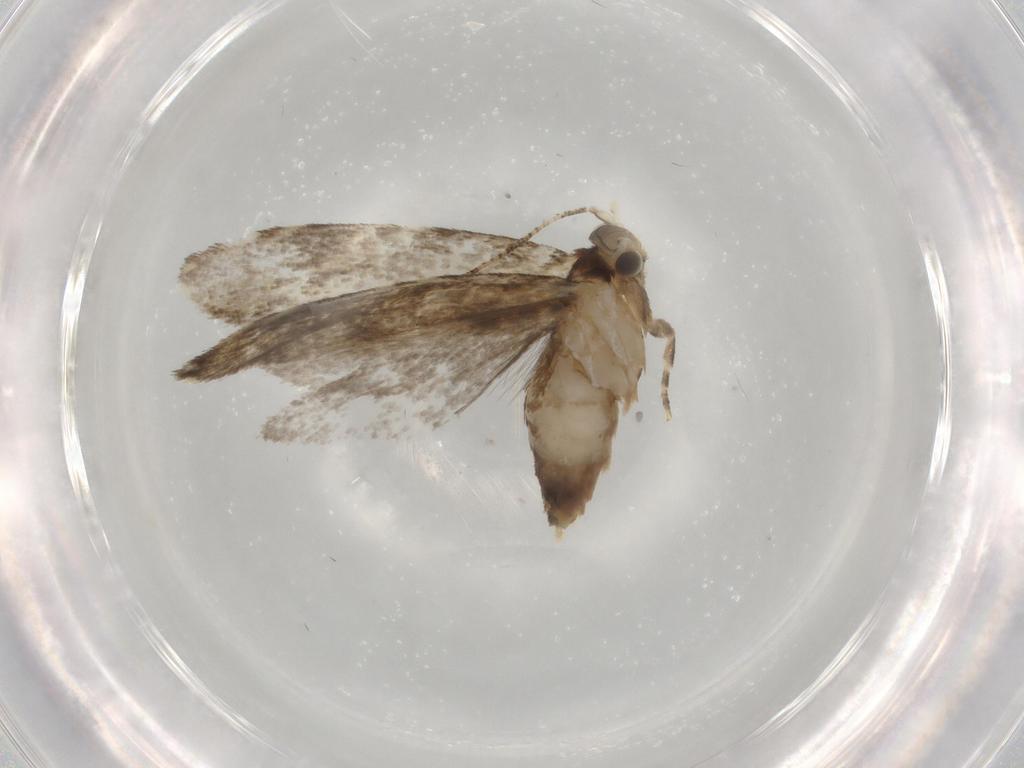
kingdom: Animalia
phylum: Arthropoda
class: Insecta
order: Lepidoptera
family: Tineidae
